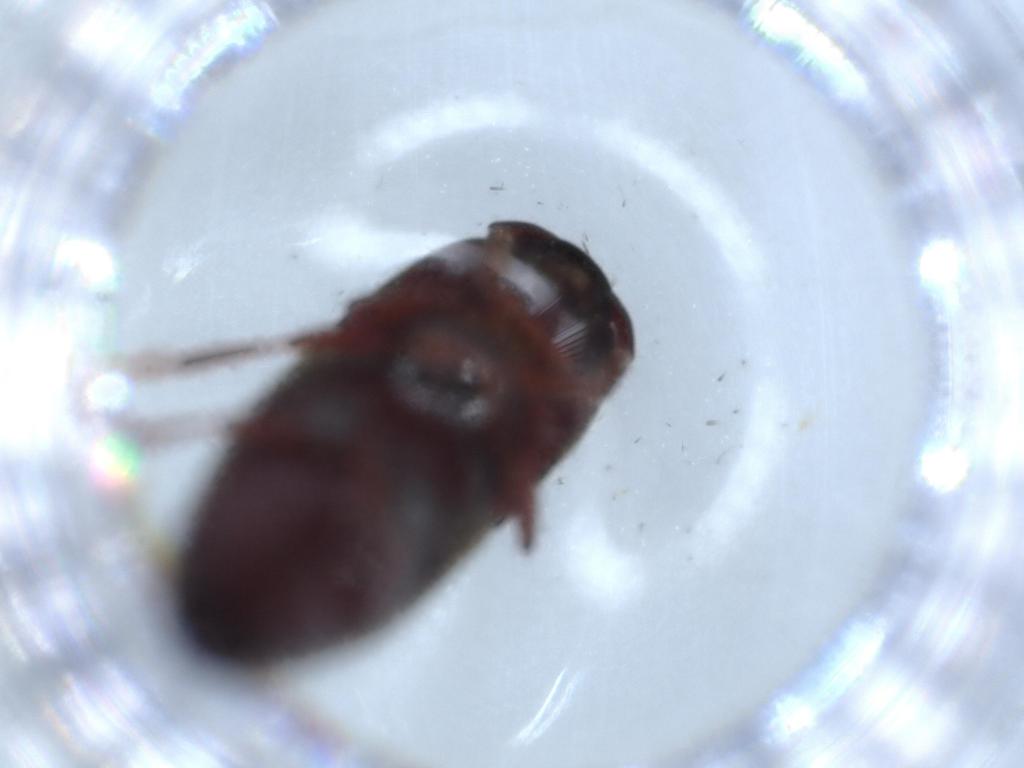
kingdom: Animalia
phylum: Arthropoda
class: Insecta
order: Coleoptera
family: Eucnemidae
